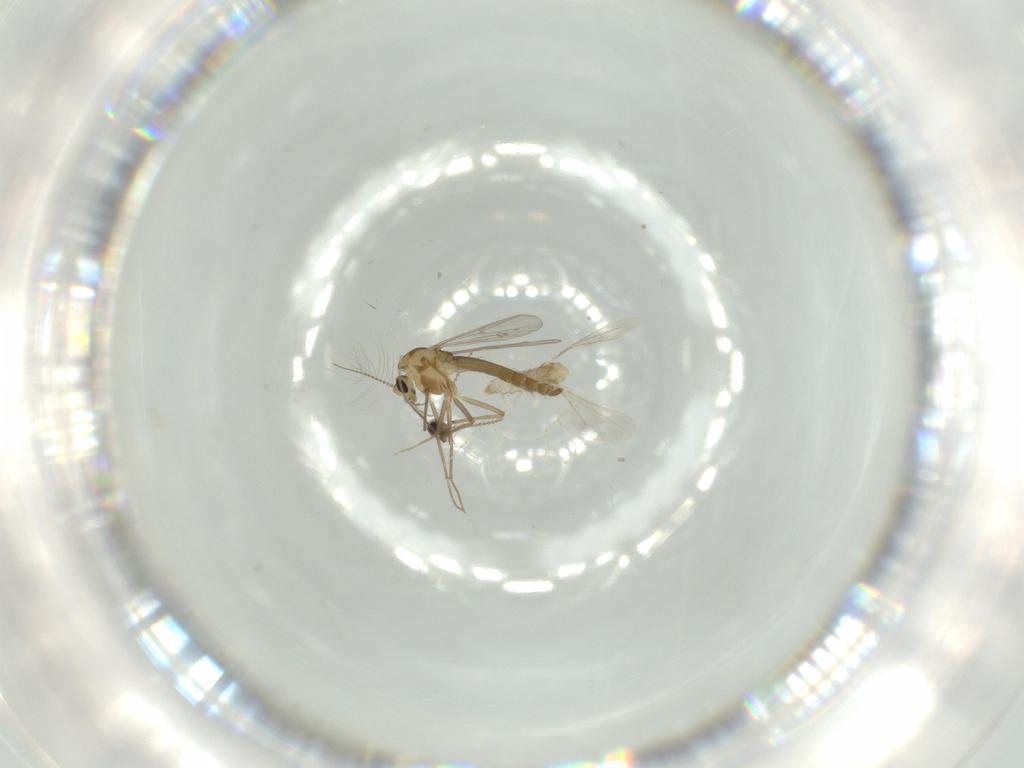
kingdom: Animalia
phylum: Arthropoda
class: Insecta
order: Diptera
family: Chironomidae
